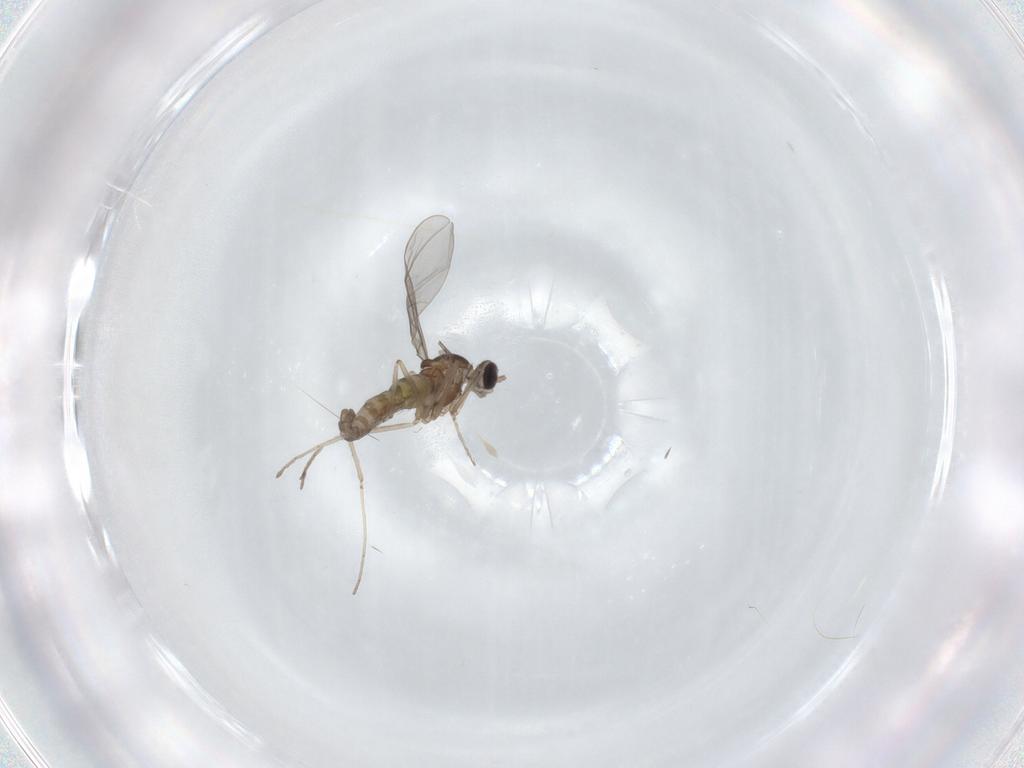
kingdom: Animalia
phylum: Arthropoda
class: Insecta
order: Diptera
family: Cecidomyiidae
